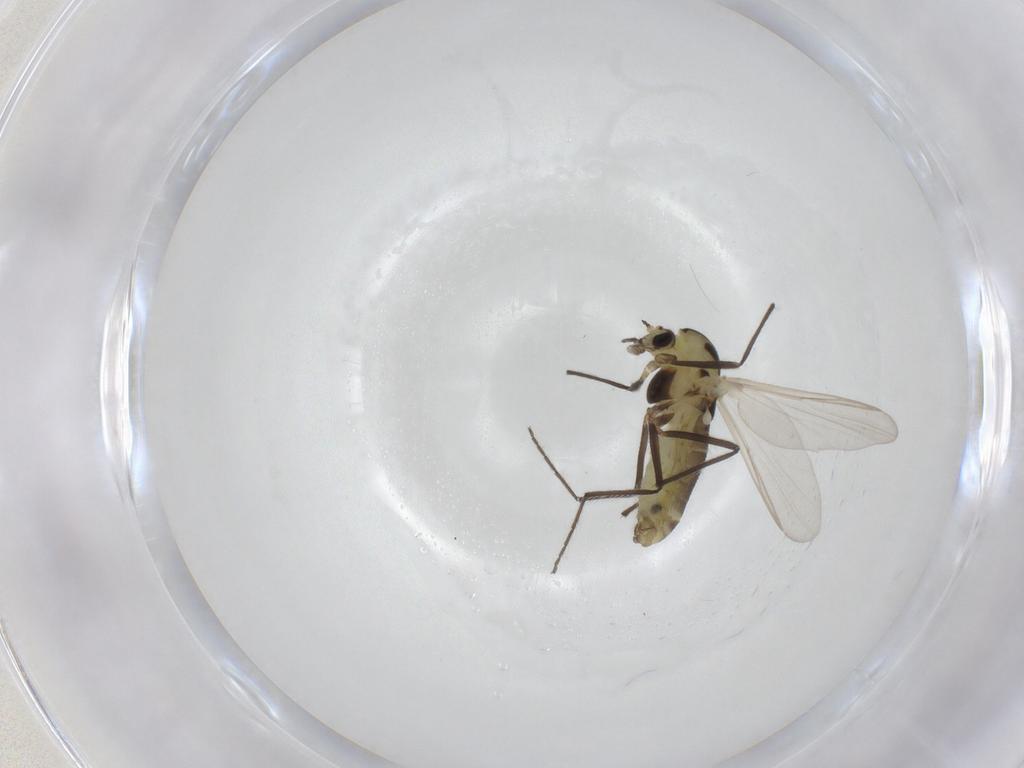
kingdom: Animalia
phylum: Arthropoda
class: Insecta
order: Diptera
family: Chironomidae
